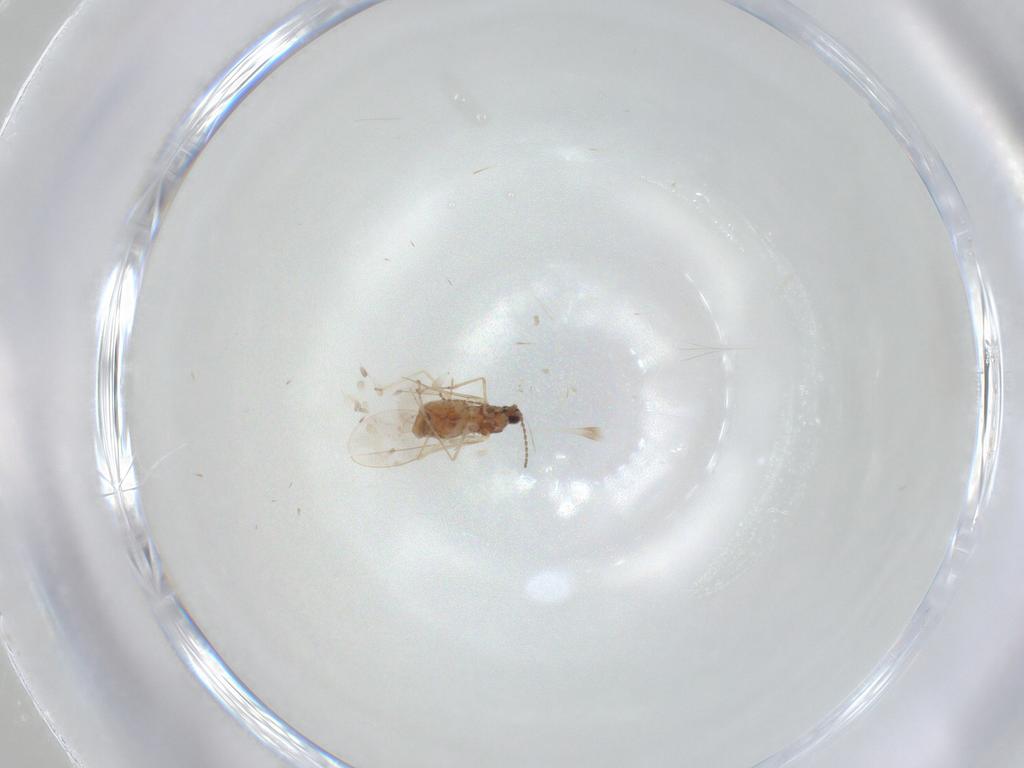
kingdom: Animalia
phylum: Arthropoda
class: Insecta
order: Diptera
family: Cecidomyiidae
